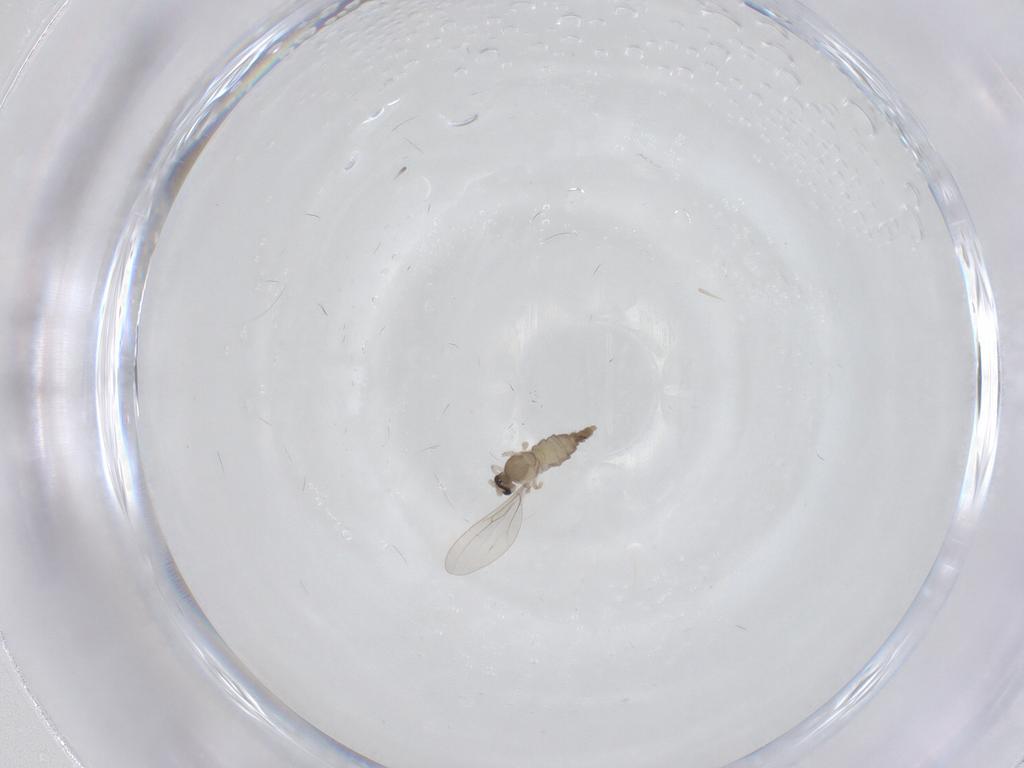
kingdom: Animalia
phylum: Arthropoda
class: Insecta
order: Diptera
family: Cecidomyiidae
